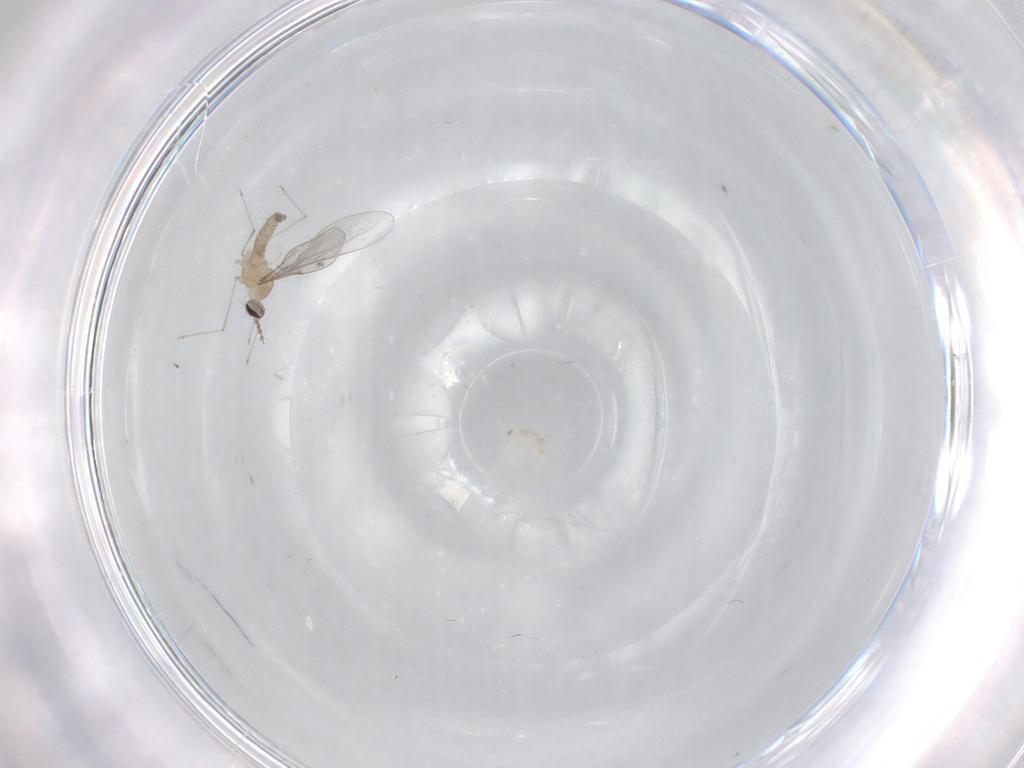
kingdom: Animalia
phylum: Arthropoda
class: Insecta
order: Diptera
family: Cecidomyiidae
